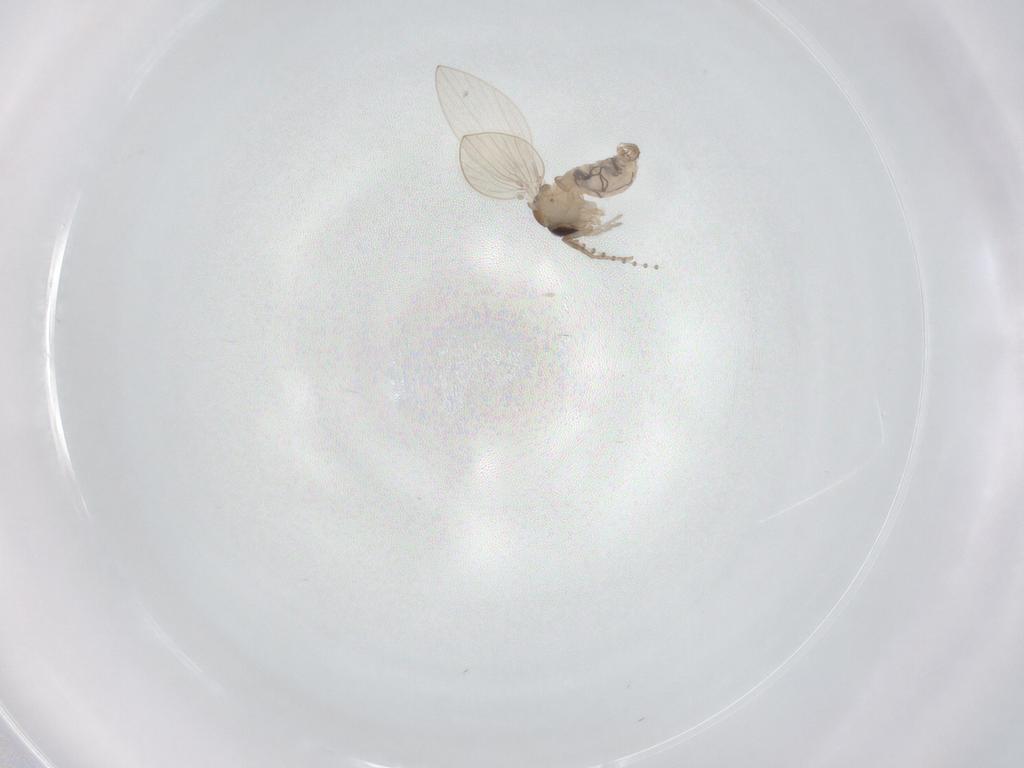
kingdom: Animalia
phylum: Arthropoda
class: Insecta
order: Diptera
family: Psychodidae
